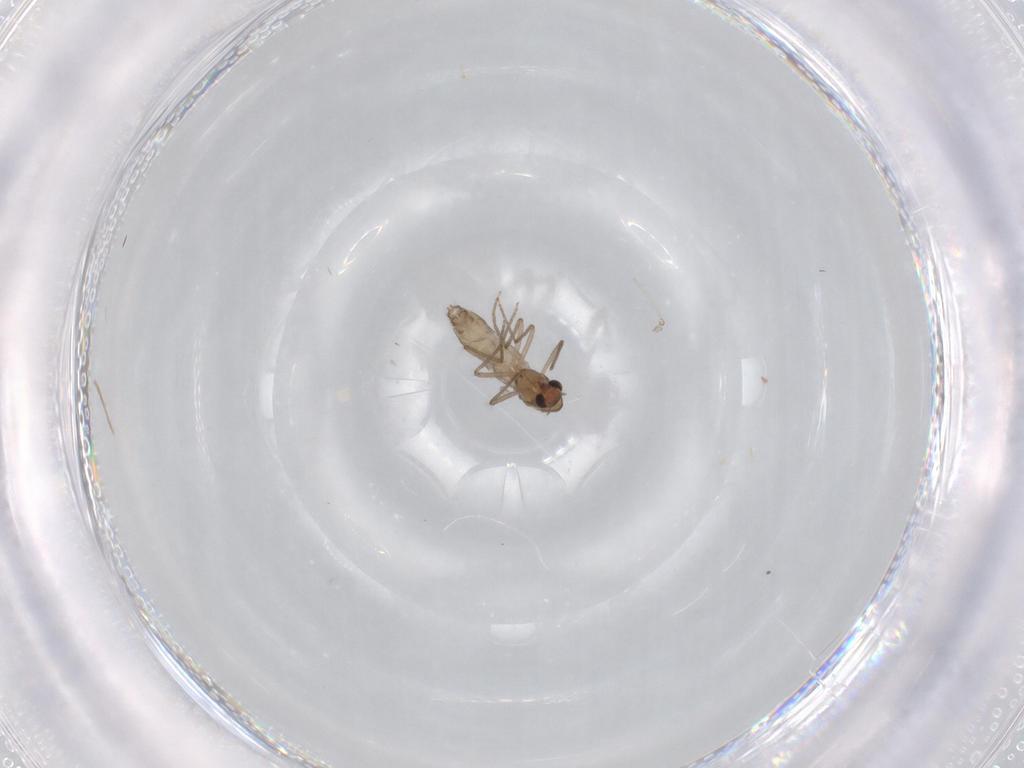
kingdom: Animalia
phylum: Arthropoda
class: Insecta
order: Diptera
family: Chironomidae
